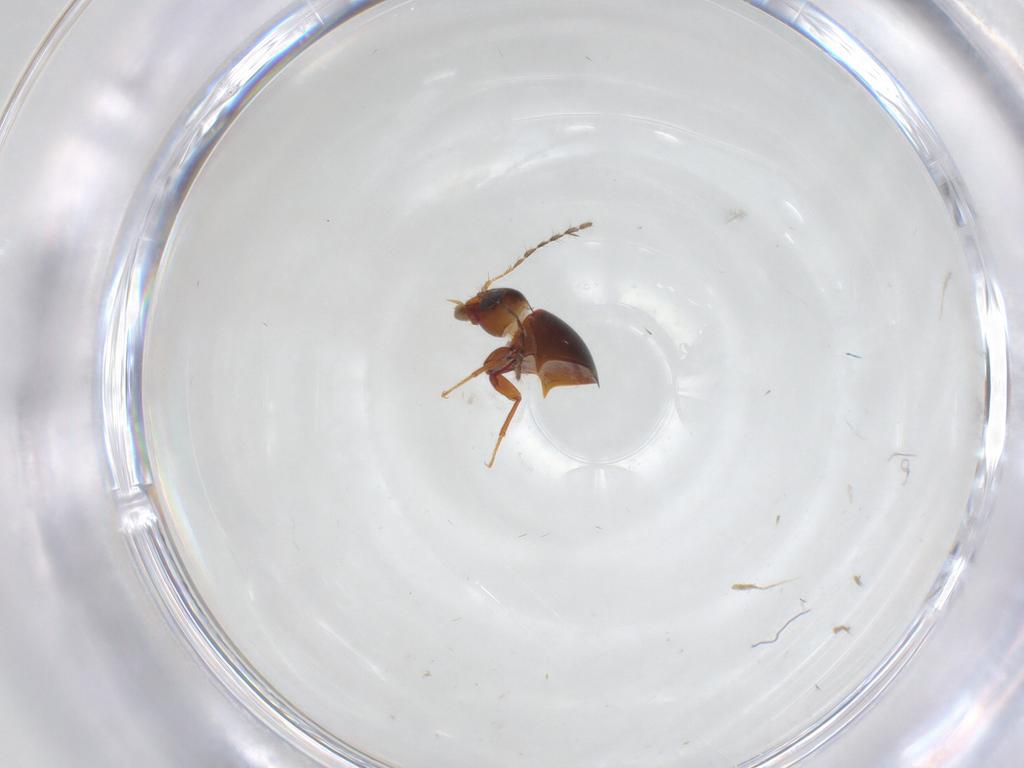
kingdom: Animalia
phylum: Arthropoda
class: Insecta
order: Coleoptera
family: Staphylinidae
